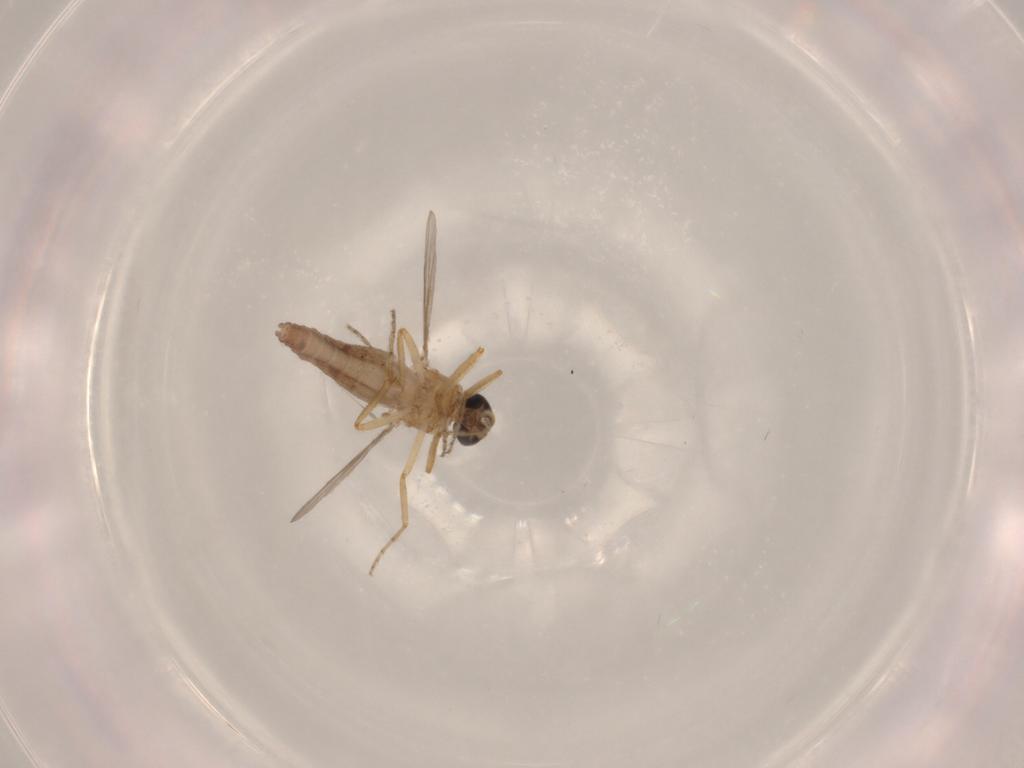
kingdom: Animalia
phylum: Arthropoda
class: Insecta
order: Diptera
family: Ceratopogonidae
